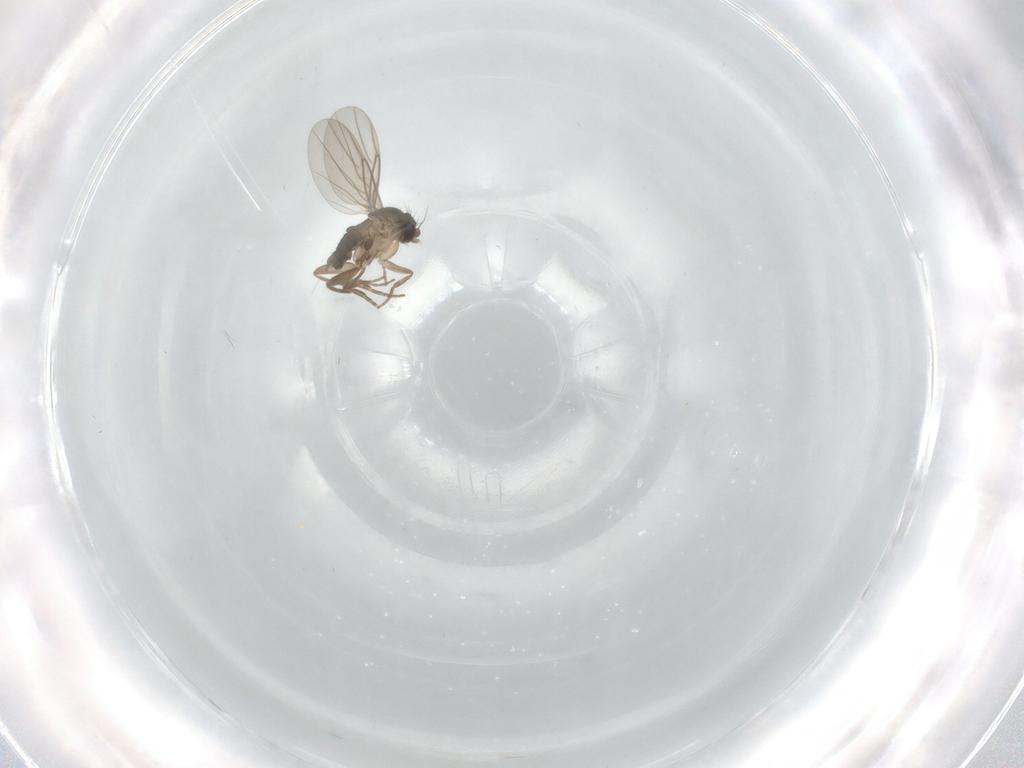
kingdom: Animalia
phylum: Arthropoda
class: Insecta
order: Diptera
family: Phoridae
